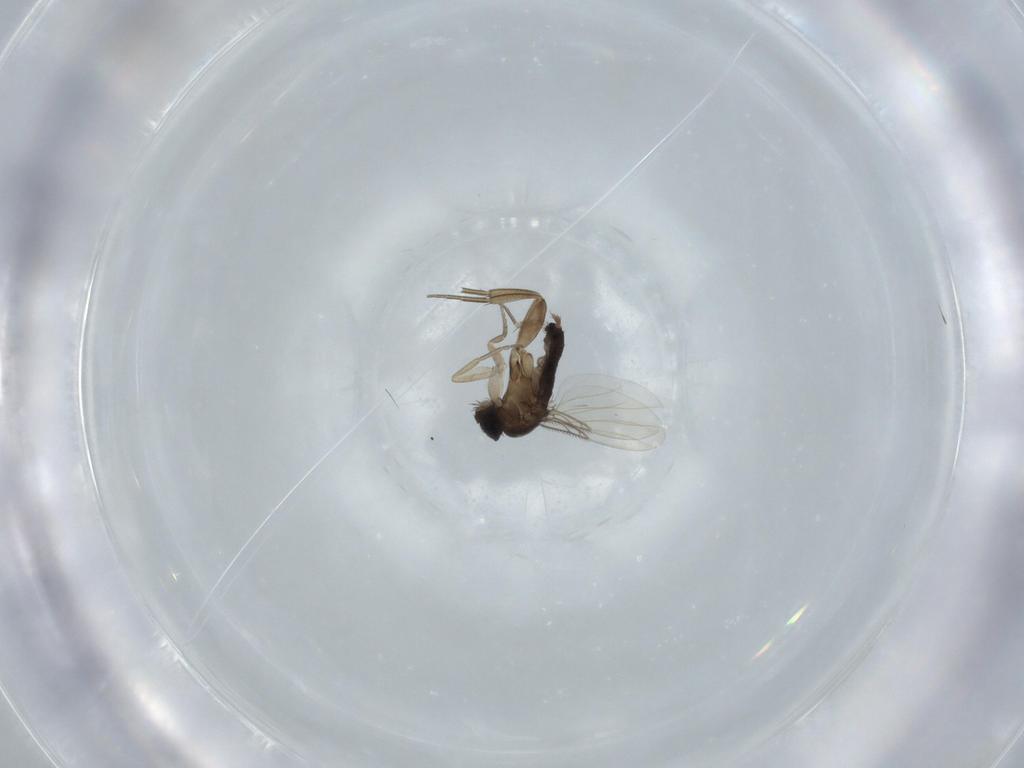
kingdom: Animalia
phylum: Arthropoda
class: Insecta
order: Diptera
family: Phoridae
